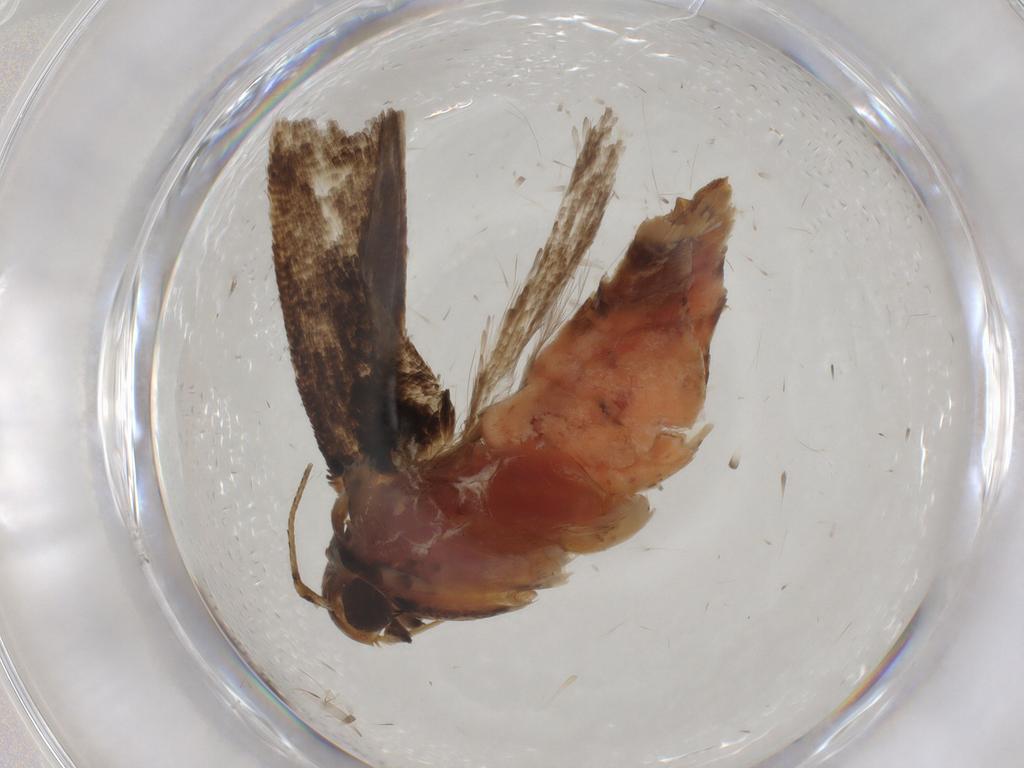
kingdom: Animalia
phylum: Arthropoda
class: Insecta
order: Lepidoptera
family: Gelechiidae
